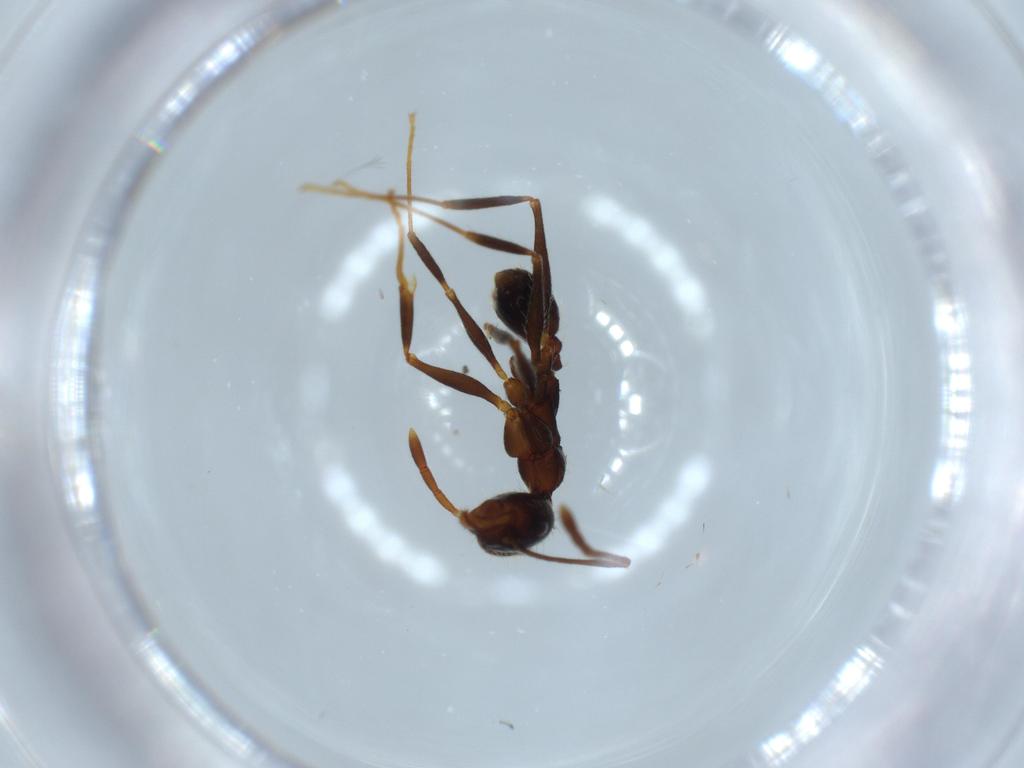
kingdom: Animalia
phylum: Arthropoda
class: Insecta
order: Hymenoptera
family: Formicidae
